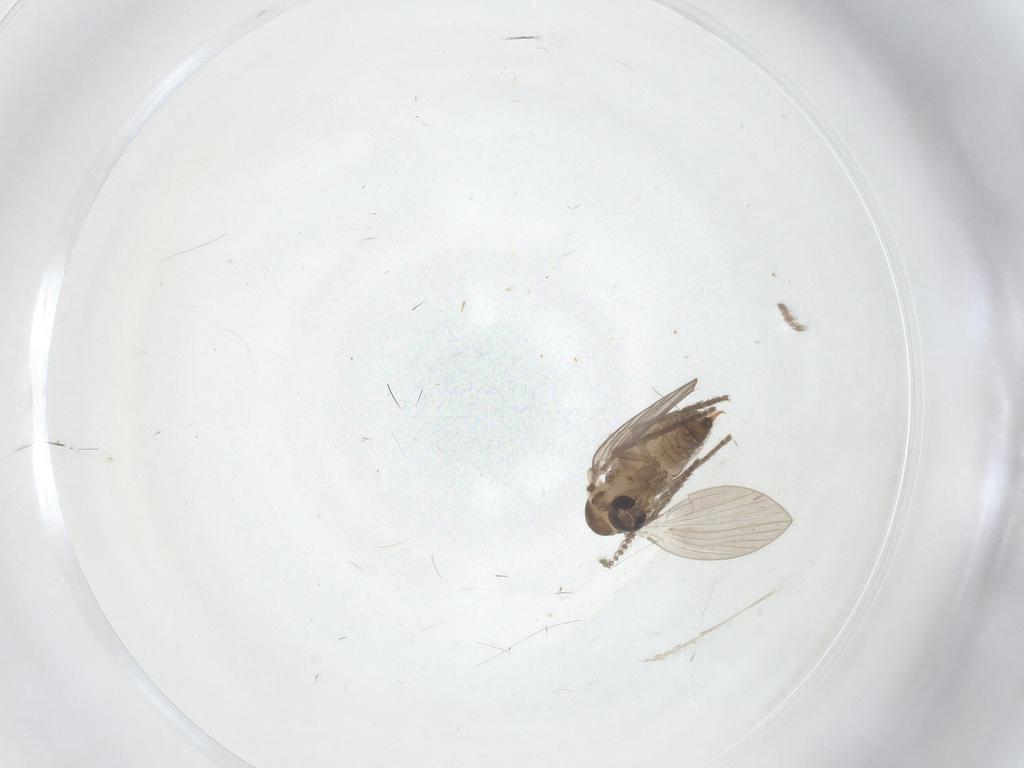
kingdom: Animalia
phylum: Arthropoda
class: Insecta
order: Diptera
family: Psychodidae
